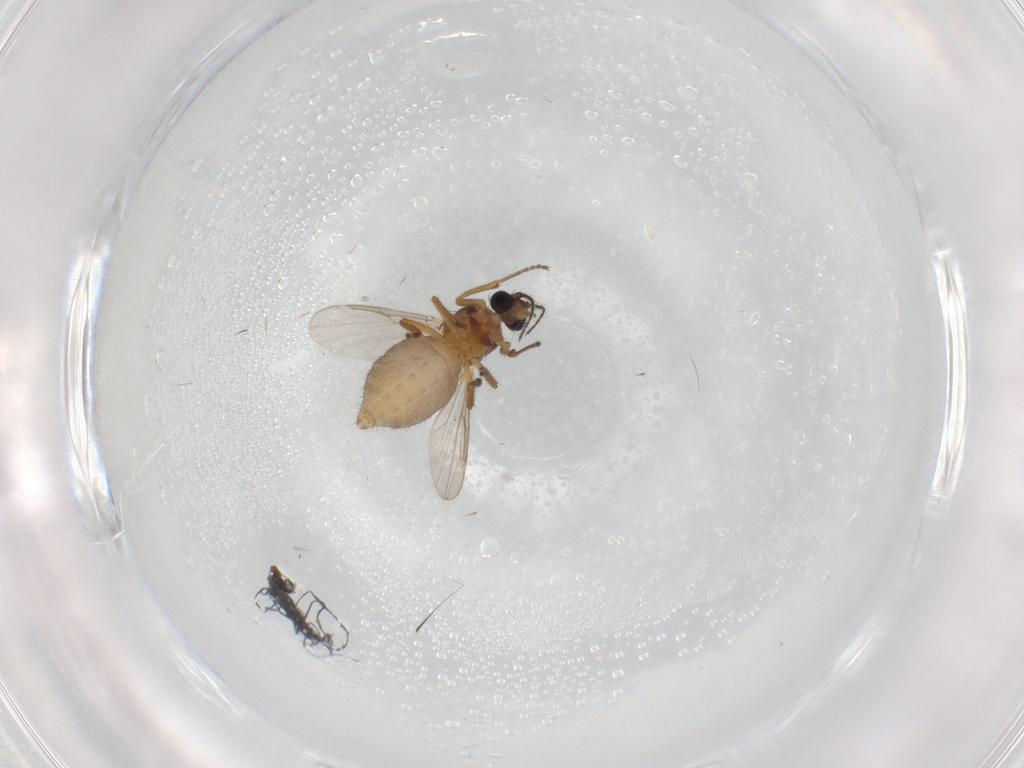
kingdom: Animalia
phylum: Arthropoda
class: Insecta
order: Diptera
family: Ceratopogonidae
